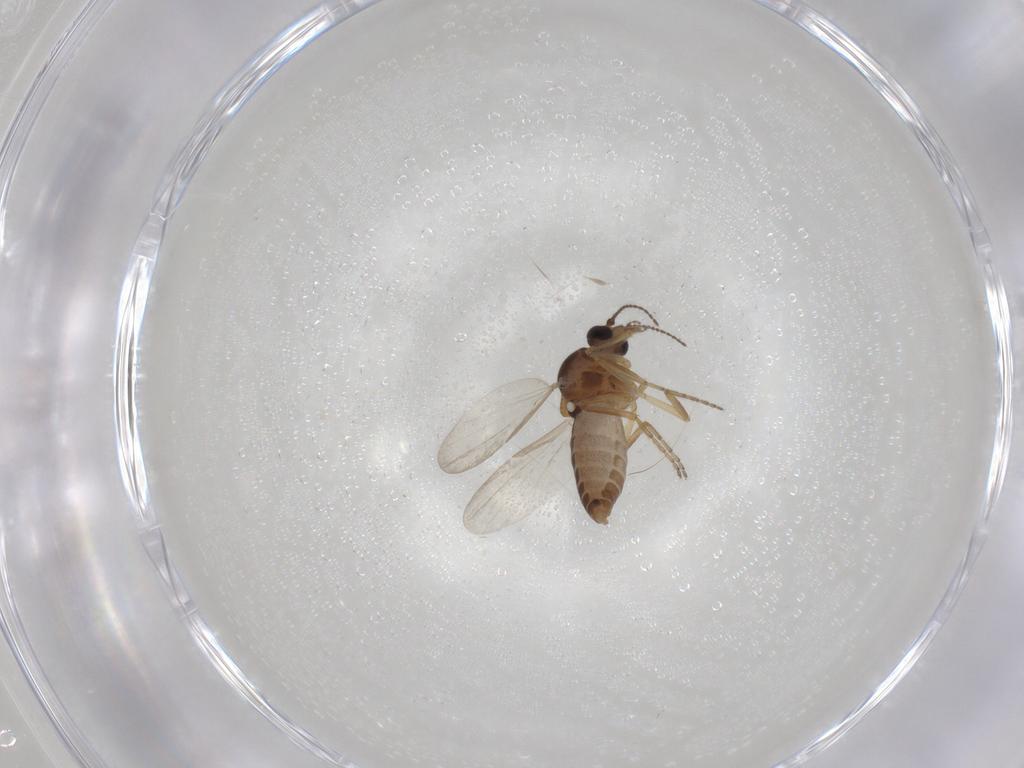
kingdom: Animalia
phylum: Arthropoda
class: Insecta
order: Diptera
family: Ceratopogonidae
